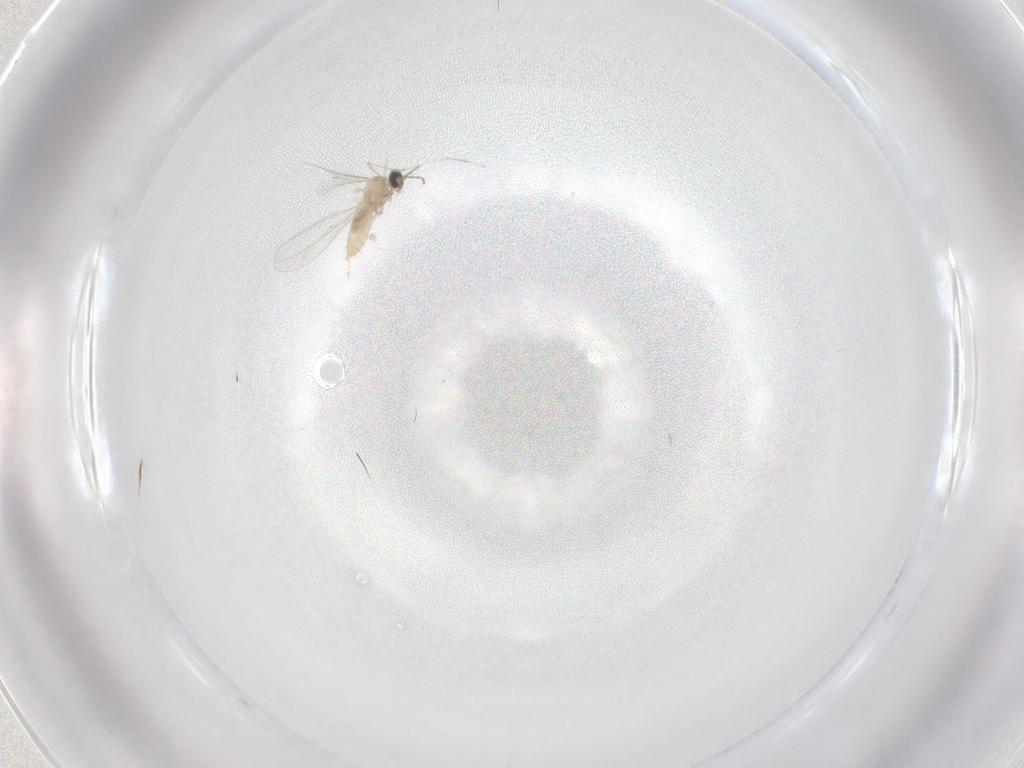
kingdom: Animalia
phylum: Arthropoda
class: Insecta
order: Diptera
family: Cecidomyiidae
